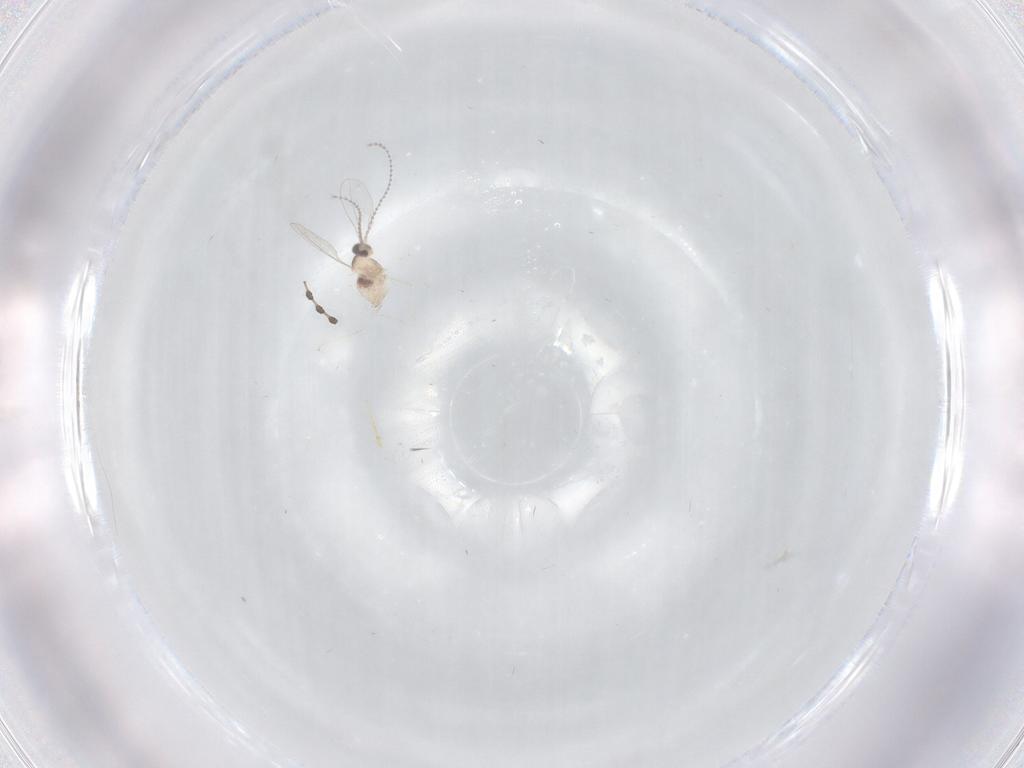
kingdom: Animalia
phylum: Arthropoda
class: Insecta
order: Diptera
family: Cecidomyiidae
